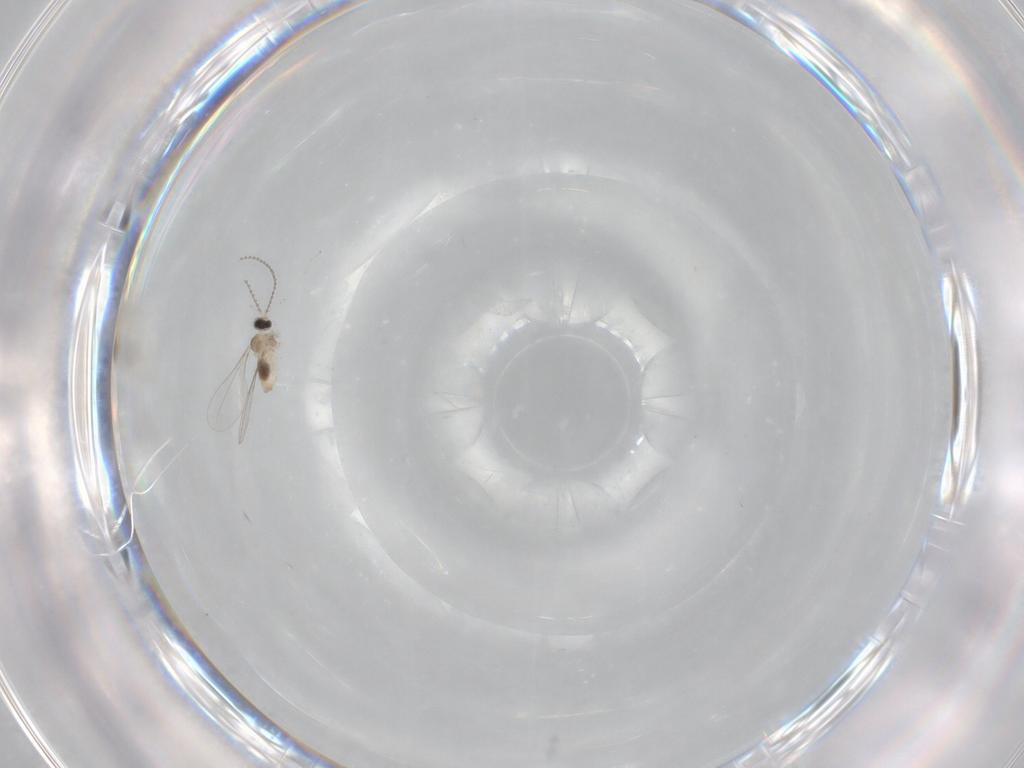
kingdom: Animalia
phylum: Arthropoda
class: Insecta
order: Diptera
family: Cecidomyiidae
